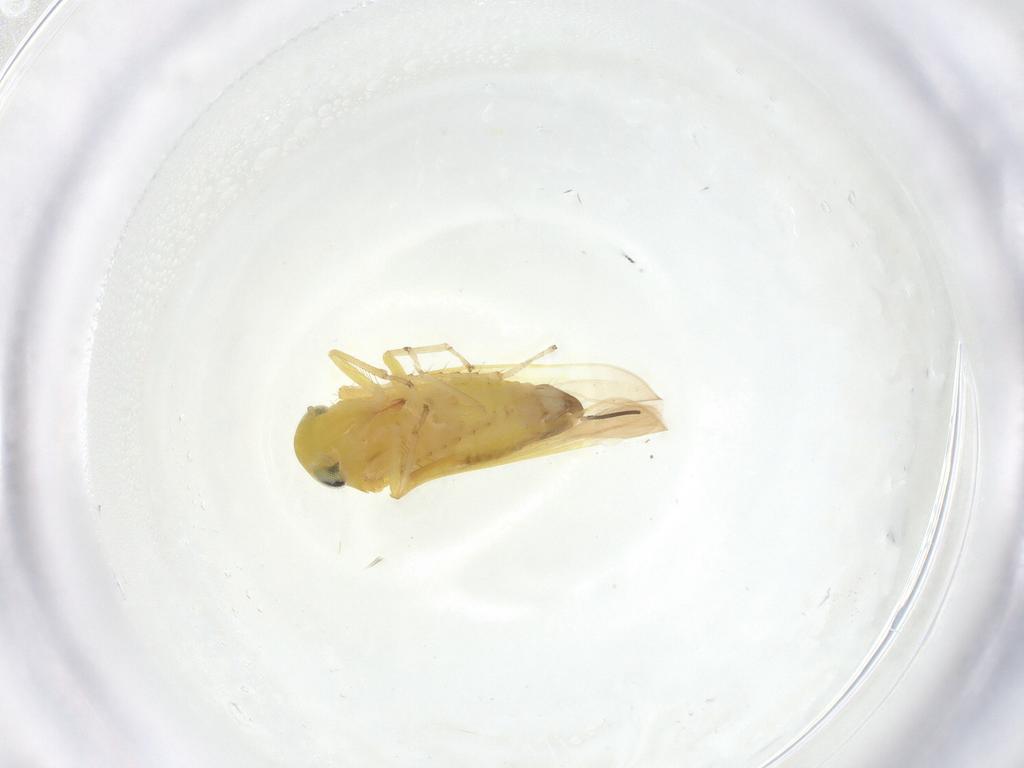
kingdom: Animalia
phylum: Arthropoda
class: Insecta
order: Hemiptera
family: Cicadellidae
